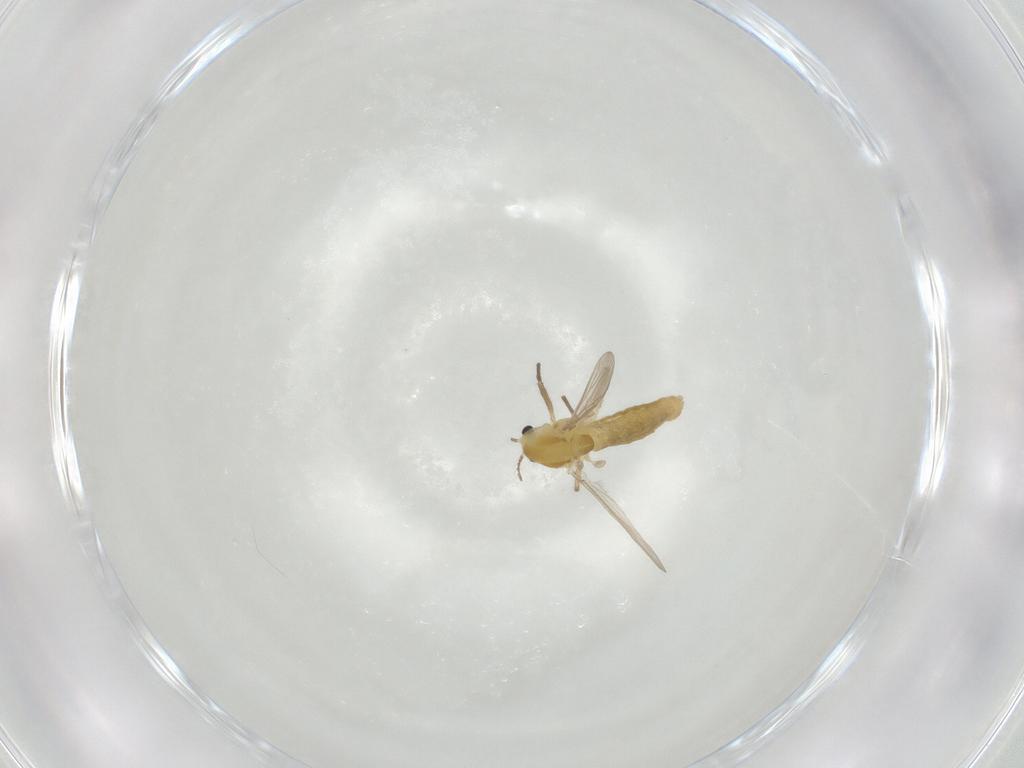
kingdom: Animalia
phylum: Arthropoda
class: Insecta
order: Diptera
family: Chironomidae
